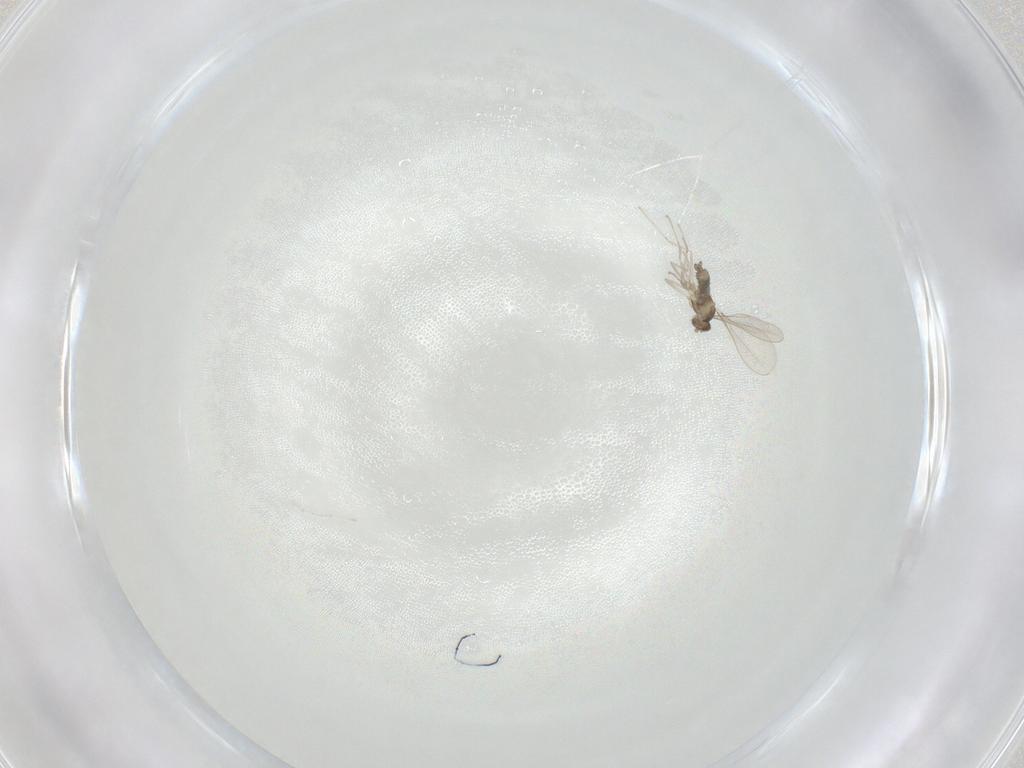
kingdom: Animalia
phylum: Arthropoda
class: Insecta
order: Diptera
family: Cecidomyiidae
